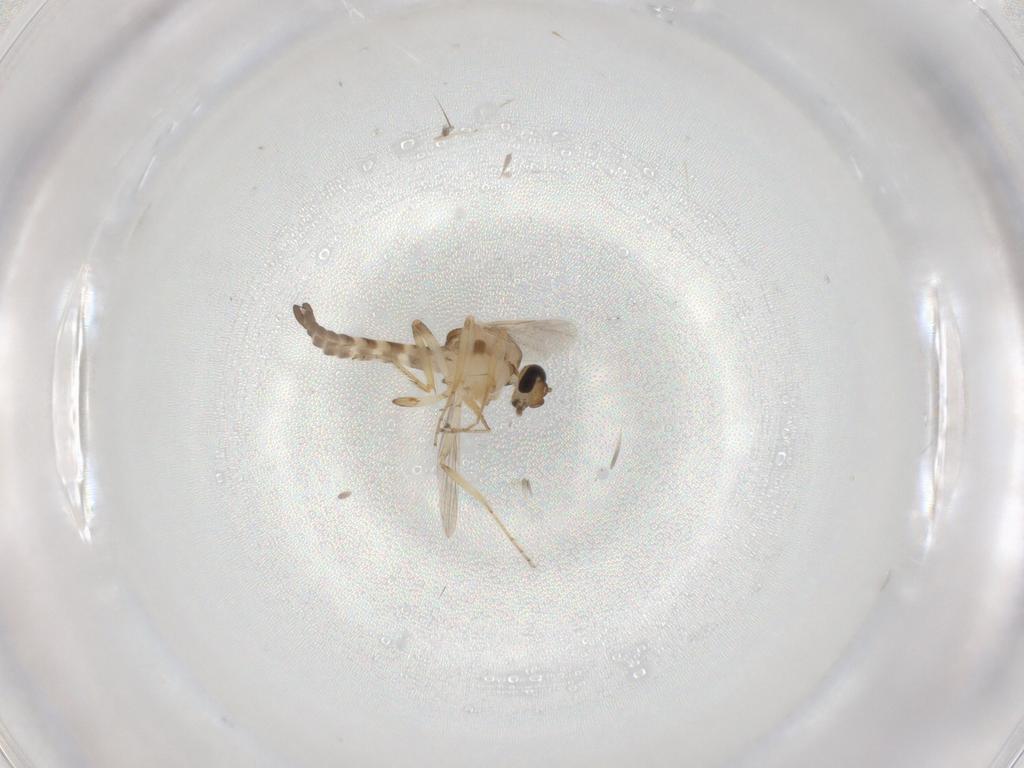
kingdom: Animalia
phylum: Arthropoda
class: Insecta
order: Diptera
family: Ceratopogonidae
